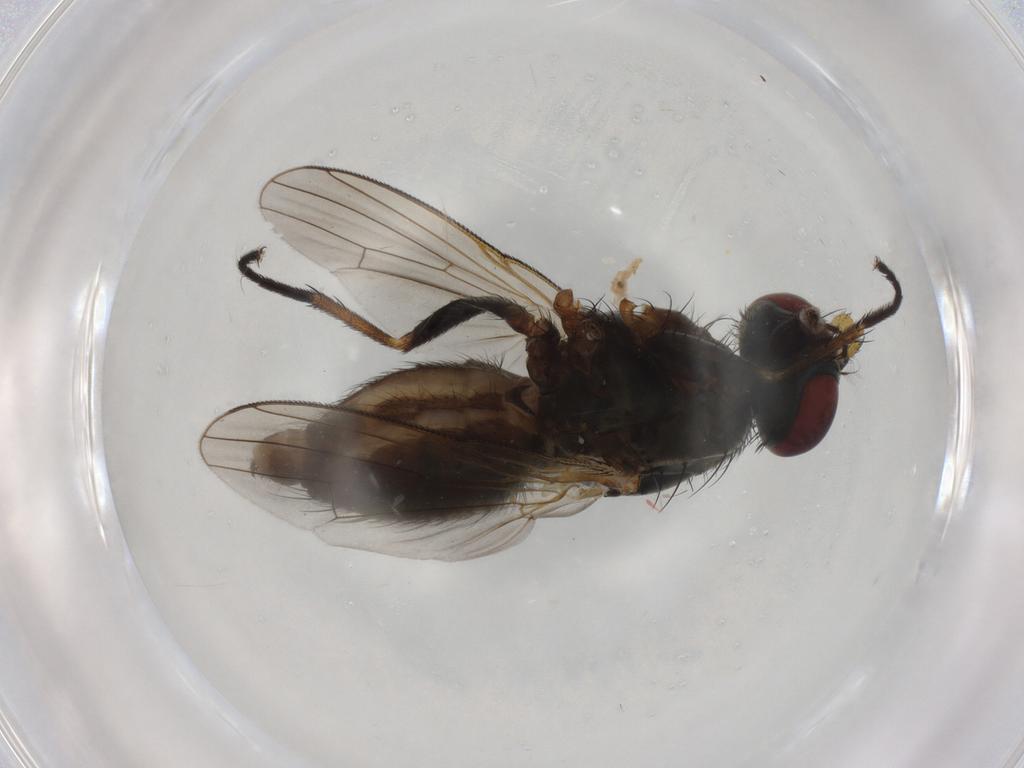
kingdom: Animalia
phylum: Arthropoda
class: Insecta
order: Diptera
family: Muscidae
